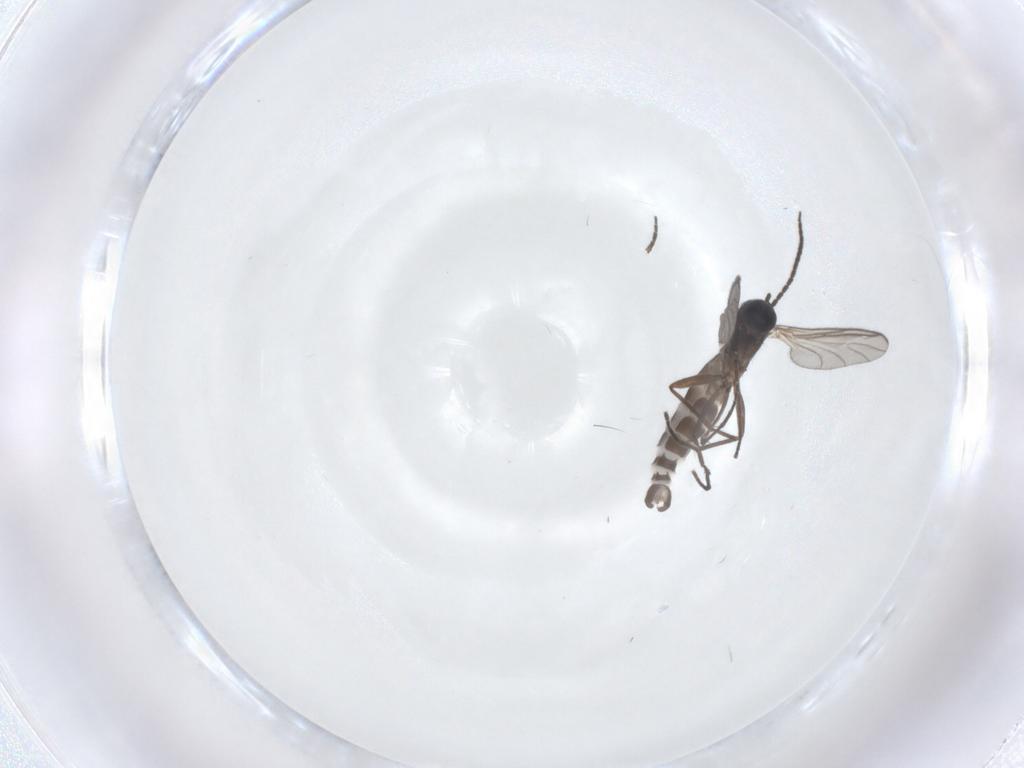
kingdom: Animalia
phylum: Arthropoda
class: Insecta
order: Diptera
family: Sciaridae
